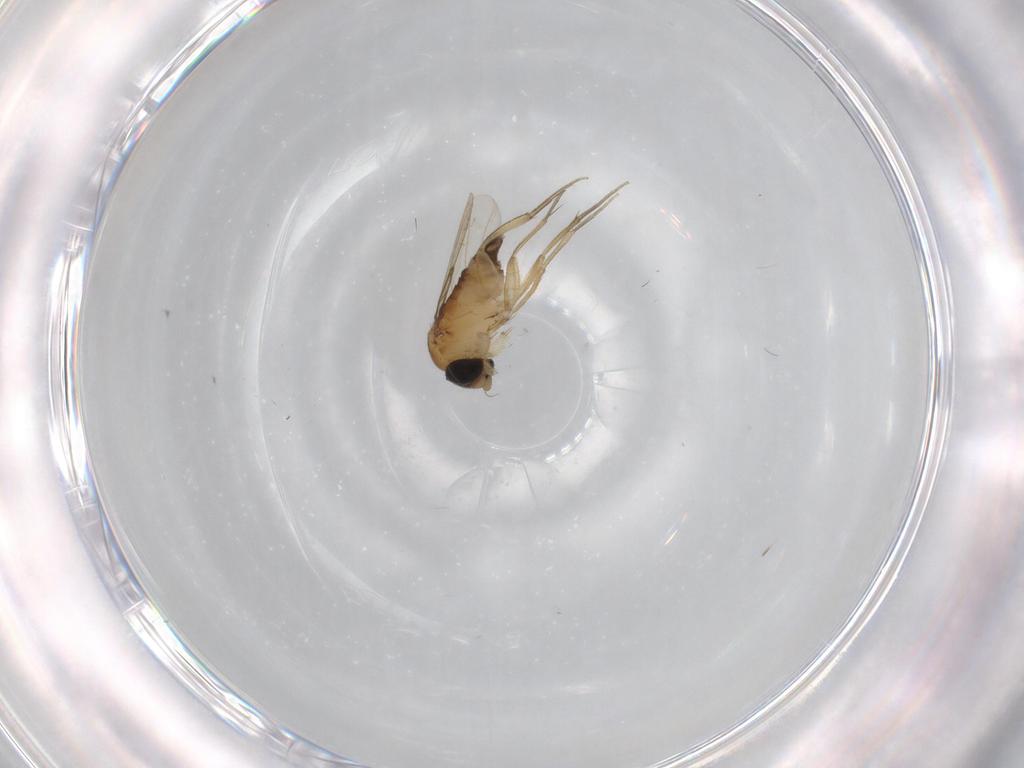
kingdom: Animalia
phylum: Arthropoda
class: Insecta
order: Diptera
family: Phoridae
